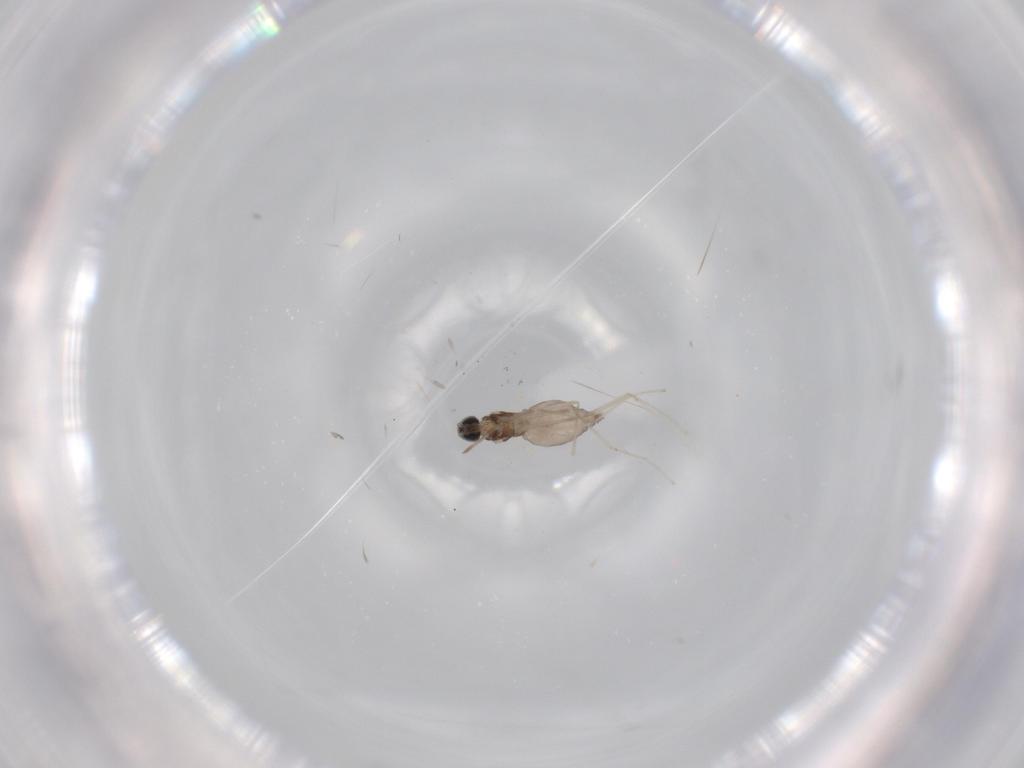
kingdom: Animalia
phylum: Arthropoda
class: Insecta
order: Diptera
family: Cecidomyiidae
